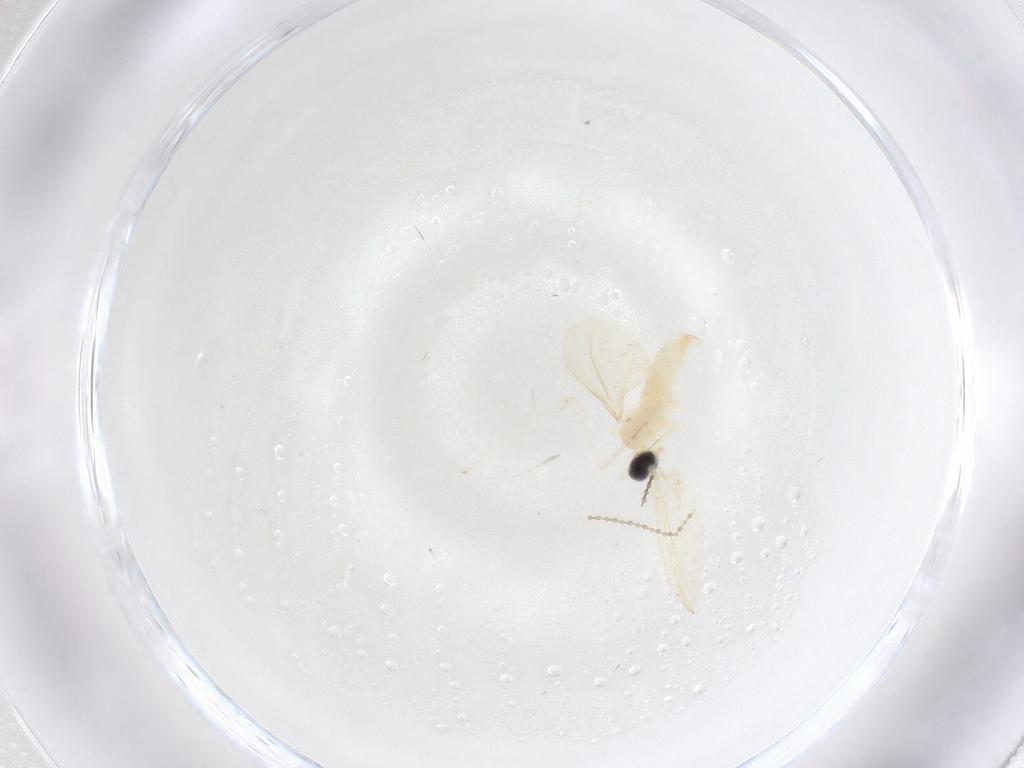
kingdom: Animalia
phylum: Arthropoda
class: Insecta
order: Diptera
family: Cecidomyiidae
